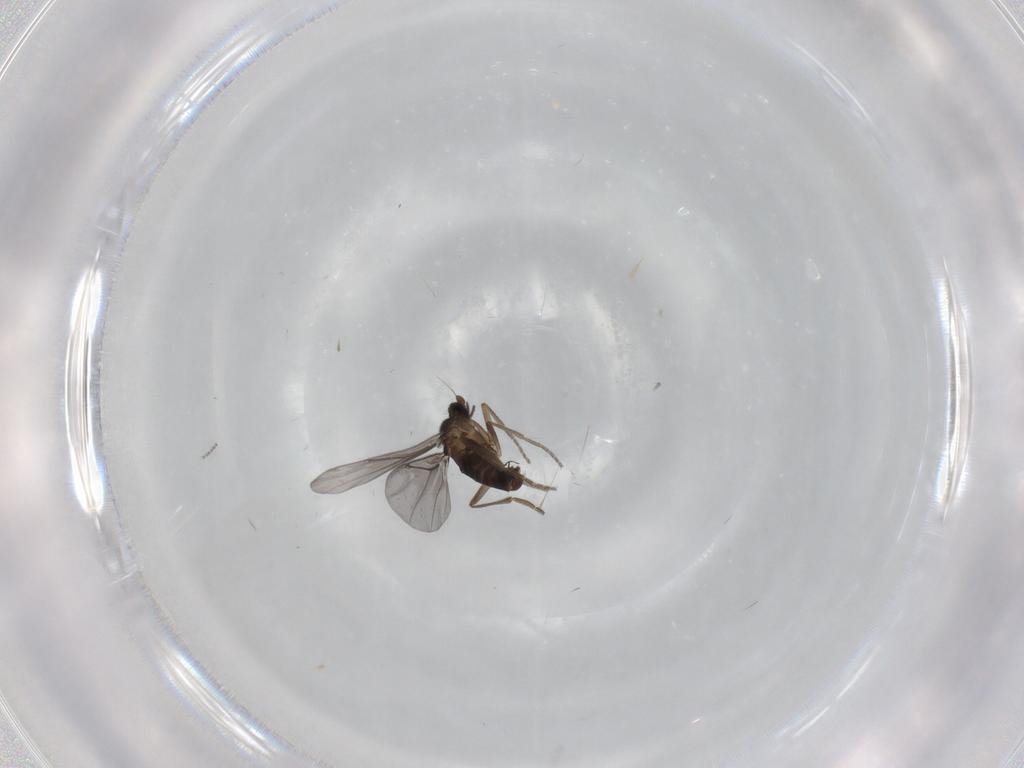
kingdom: Animalia
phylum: Arthropoda
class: Insecta
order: Diptera
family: Cecidomyiidae
